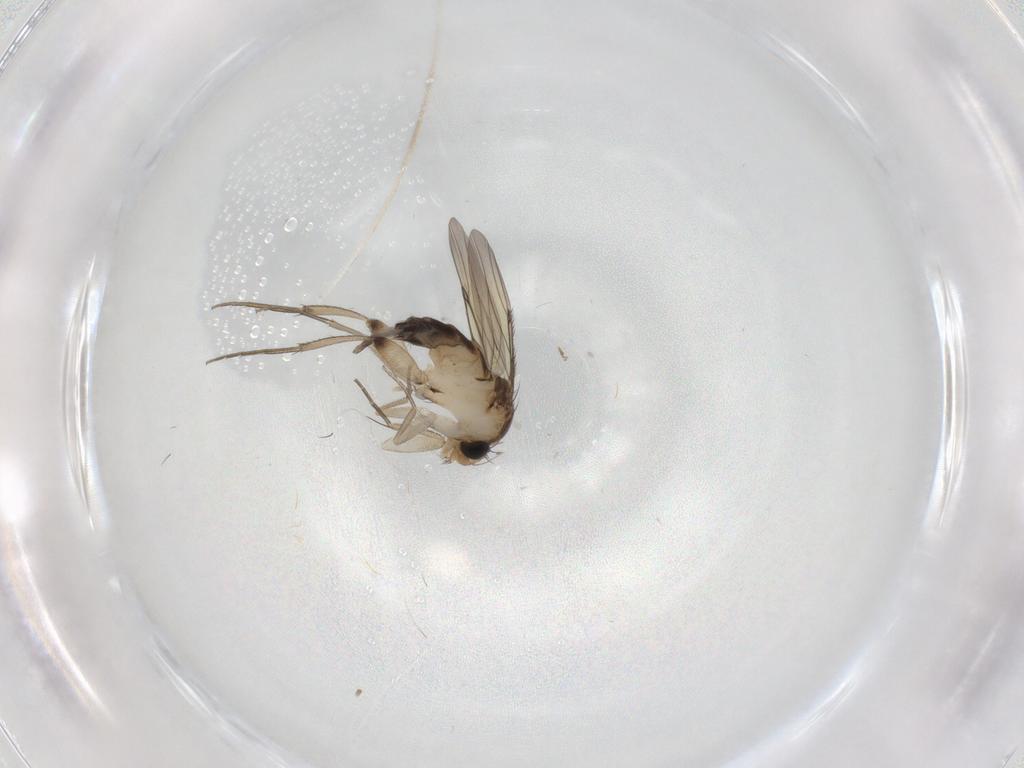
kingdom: Animalia
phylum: Arthropoda
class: Insecta
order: Diptera
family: Phoridae
